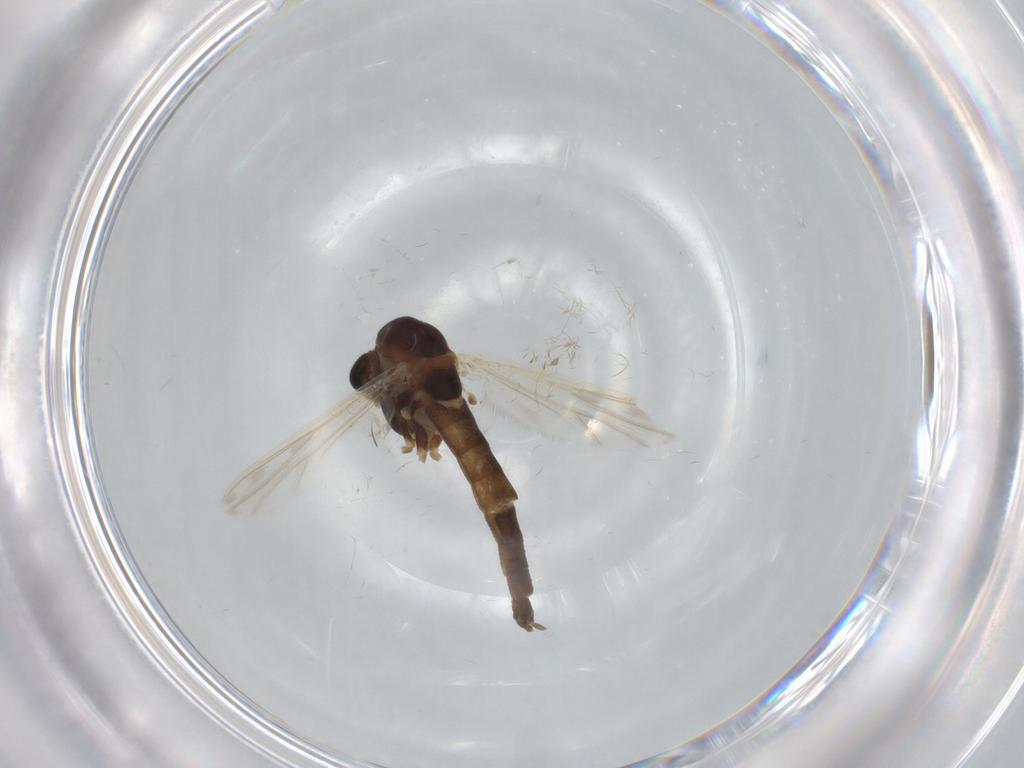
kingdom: Animalia
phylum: Arthropoda
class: Insecta
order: Diptera
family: Chironomidae
